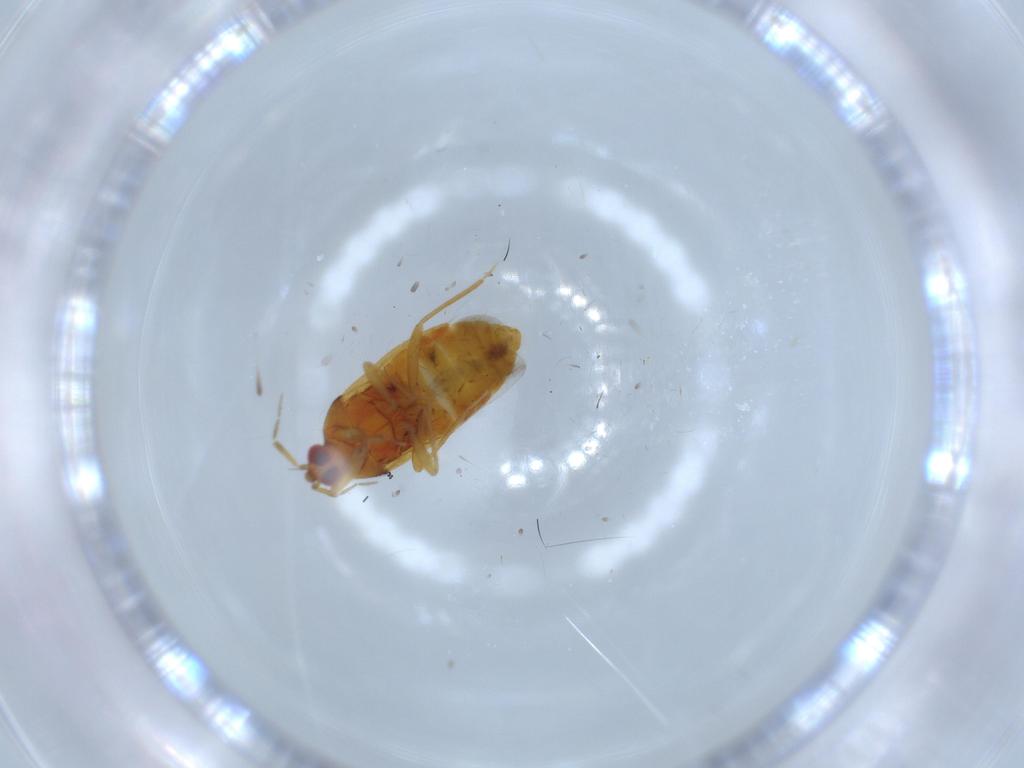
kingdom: Animalia
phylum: Arthropoda
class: Insecta
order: Hemiptera
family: Anthocoridae
